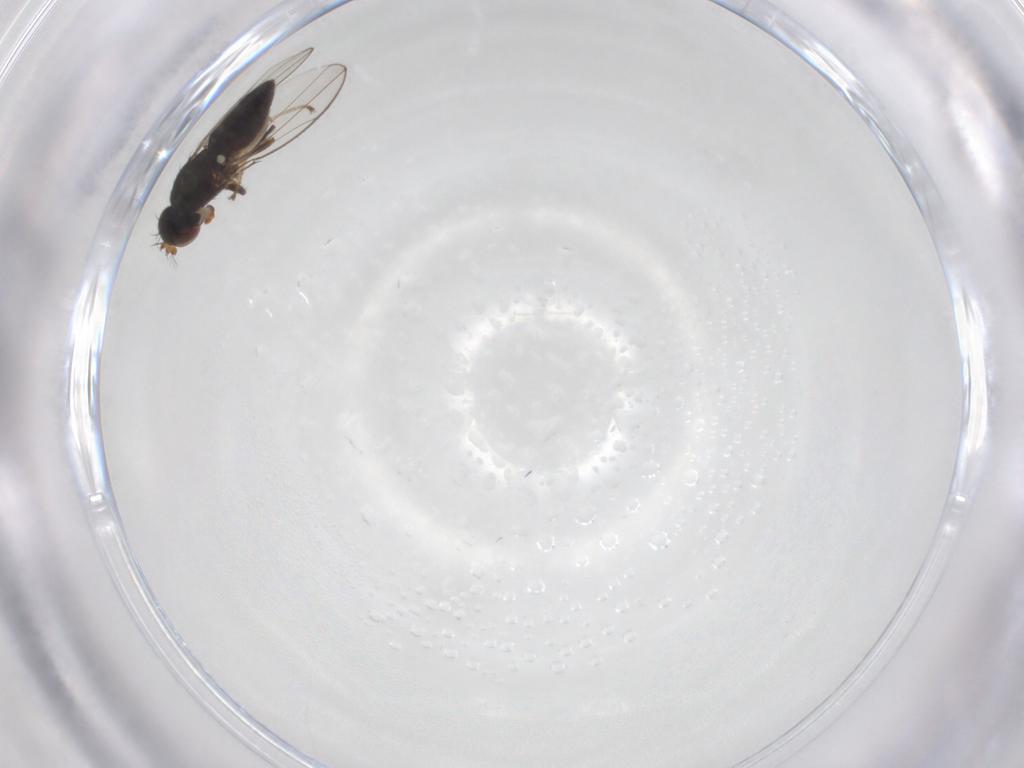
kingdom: Animalia
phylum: Arthropoda
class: Insecta
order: Diptera
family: Ephydridae
